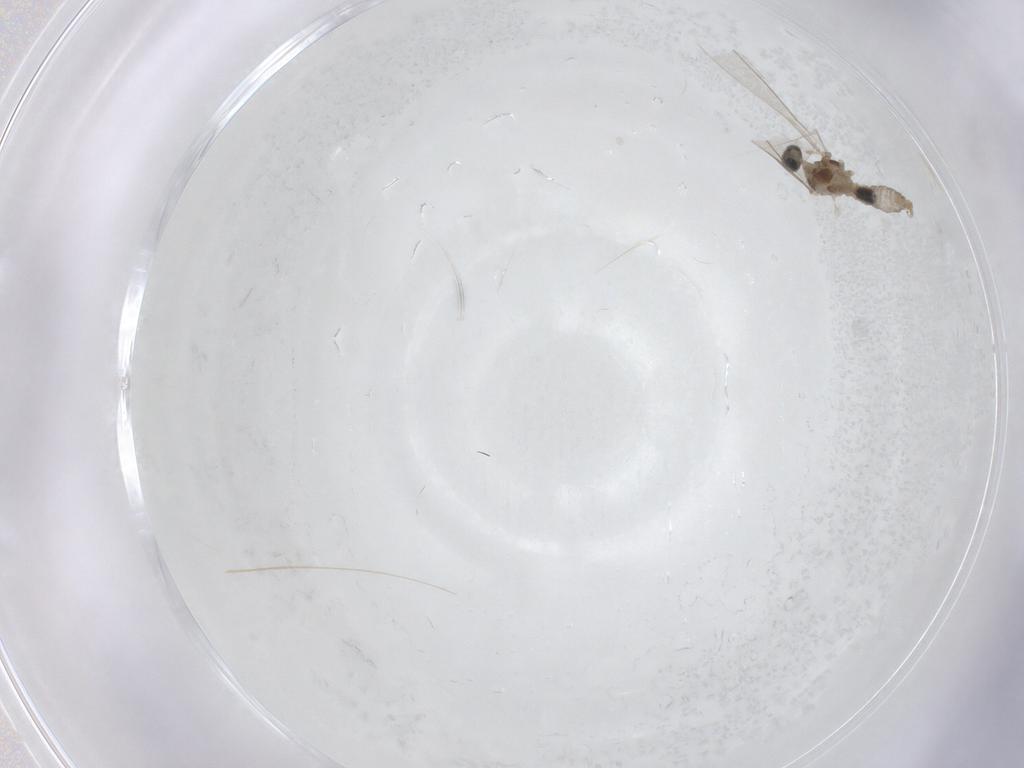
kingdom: Animalia
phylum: Arthropoda
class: Insecta
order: Diptera
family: Cecidomyiidae
